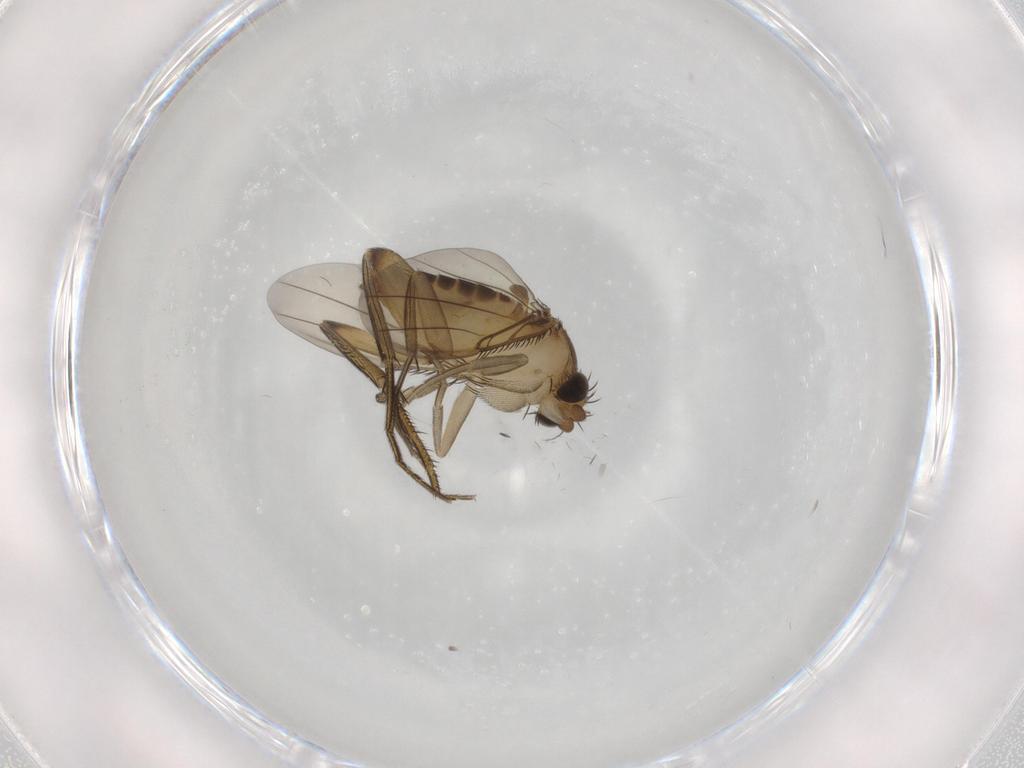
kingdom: Animalia
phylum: Arthropoda
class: Insecta
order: Diptera
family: Phoridae
